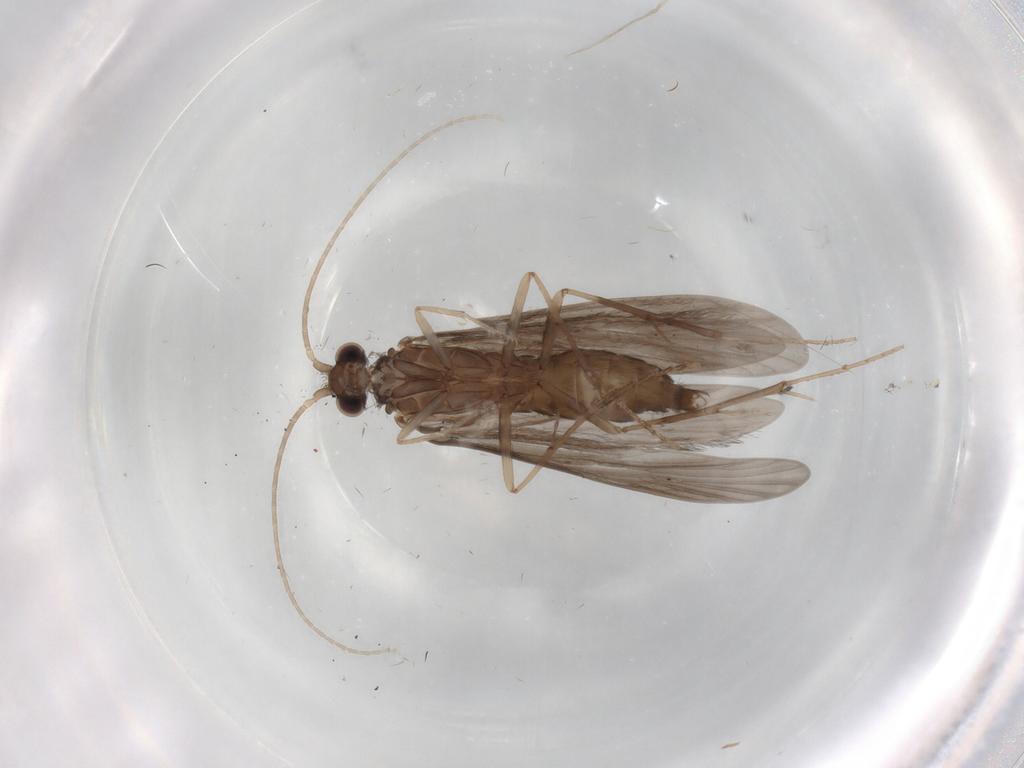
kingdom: Animalia
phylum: Arthropoda
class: Insecta
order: Trichoptera
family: Xiphocentronidae
